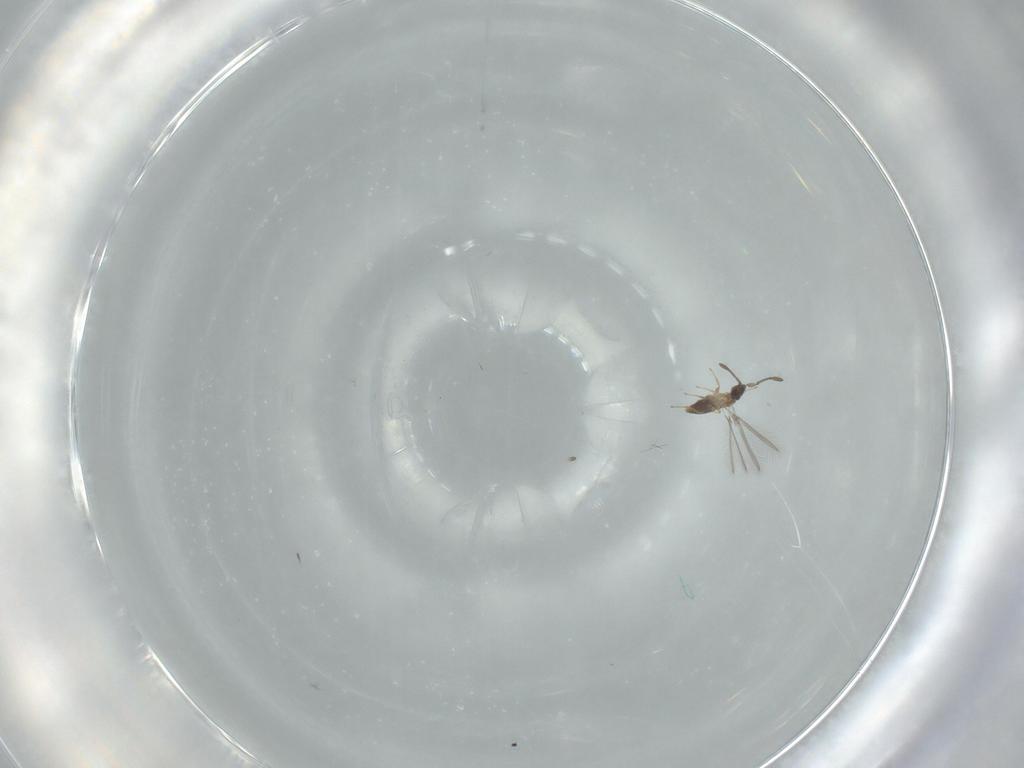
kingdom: Animalia
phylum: Arthropoda
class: Insecta
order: Hymenoptera
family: Mymaridae
